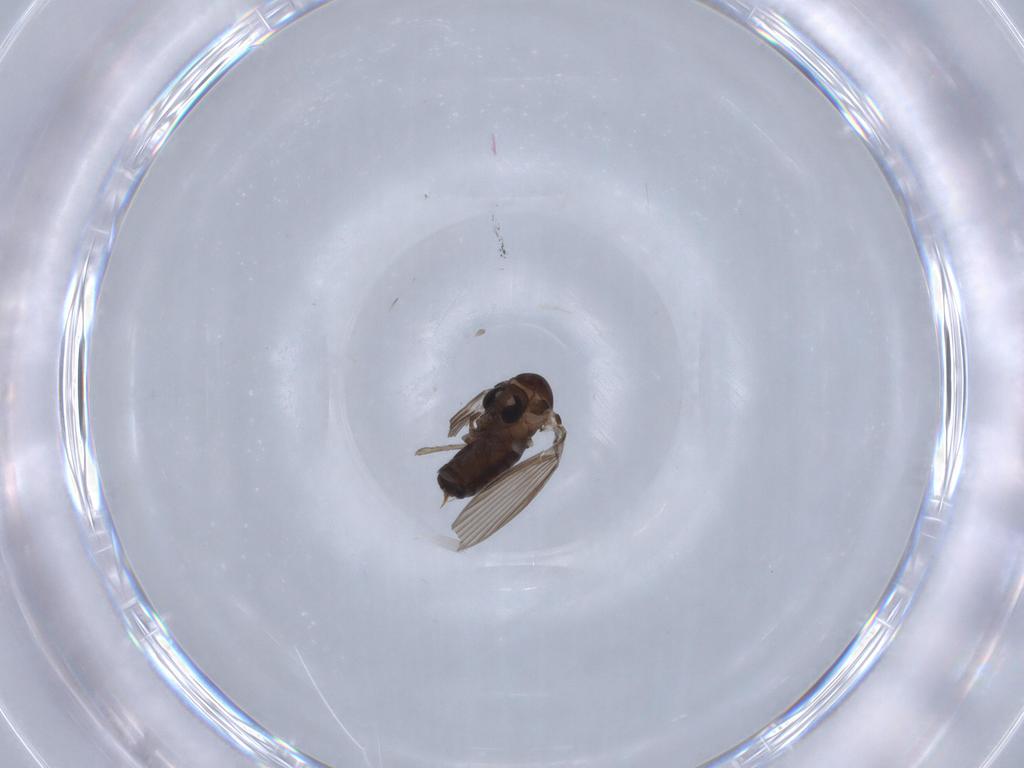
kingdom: Animalia
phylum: Arthropoda
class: Insecta
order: Diptera
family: Psychodidae
